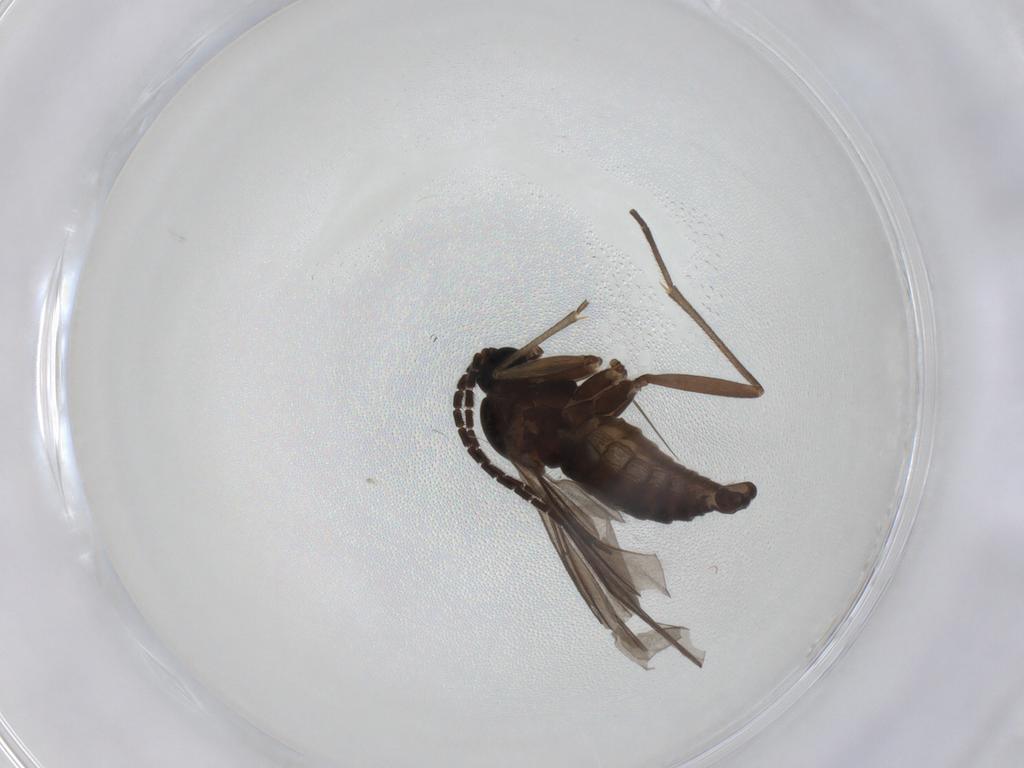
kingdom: Animalia
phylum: Arthropoda
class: Insecta
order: Diptera
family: Sciaridae
